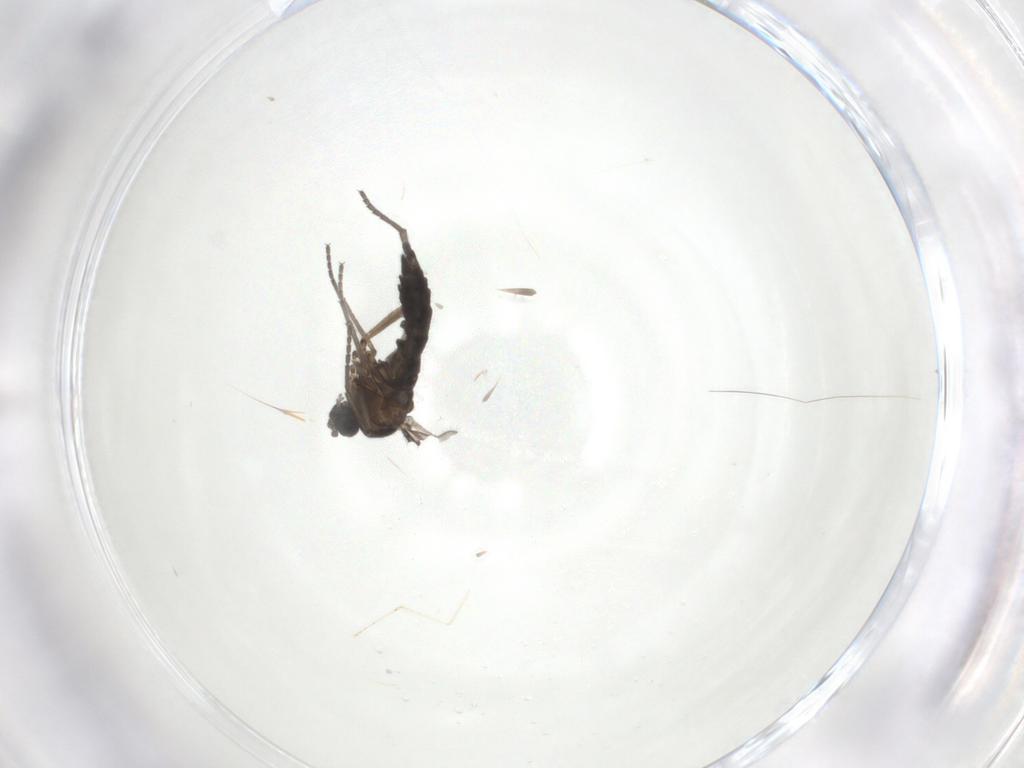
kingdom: Animalia
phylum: Arthropoda
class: Insecta
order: Diptera
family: Sciaridae
